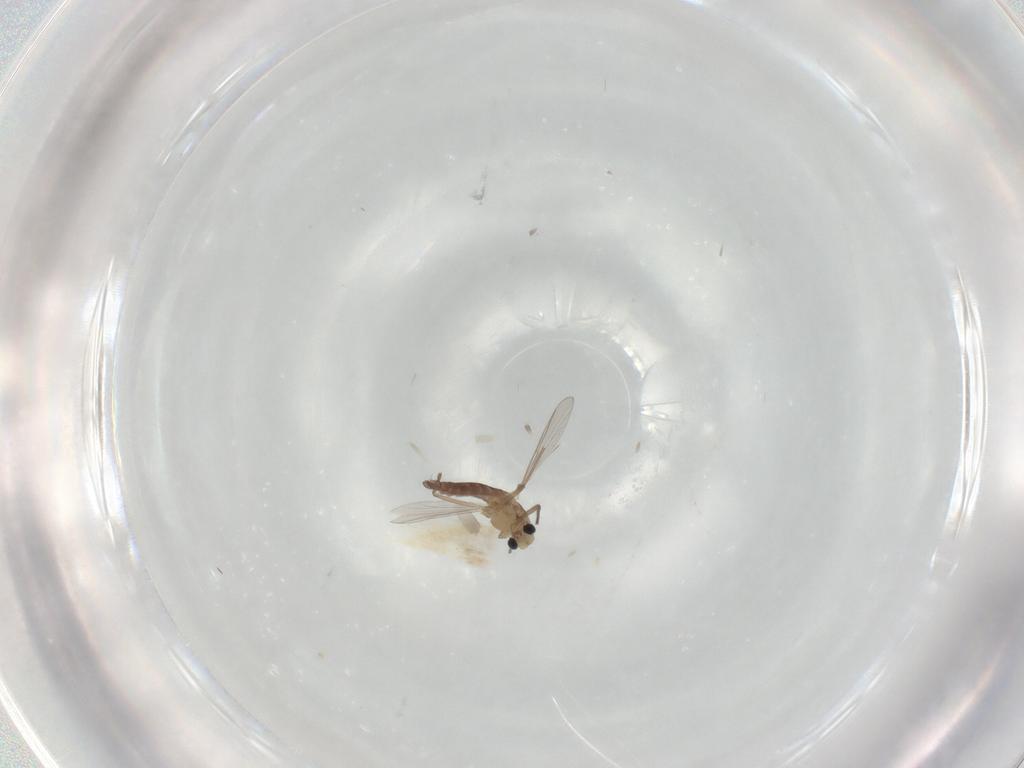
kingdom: Animalia
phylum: Arthropoda
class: Insecta
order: Diptera
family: Chironomidae
